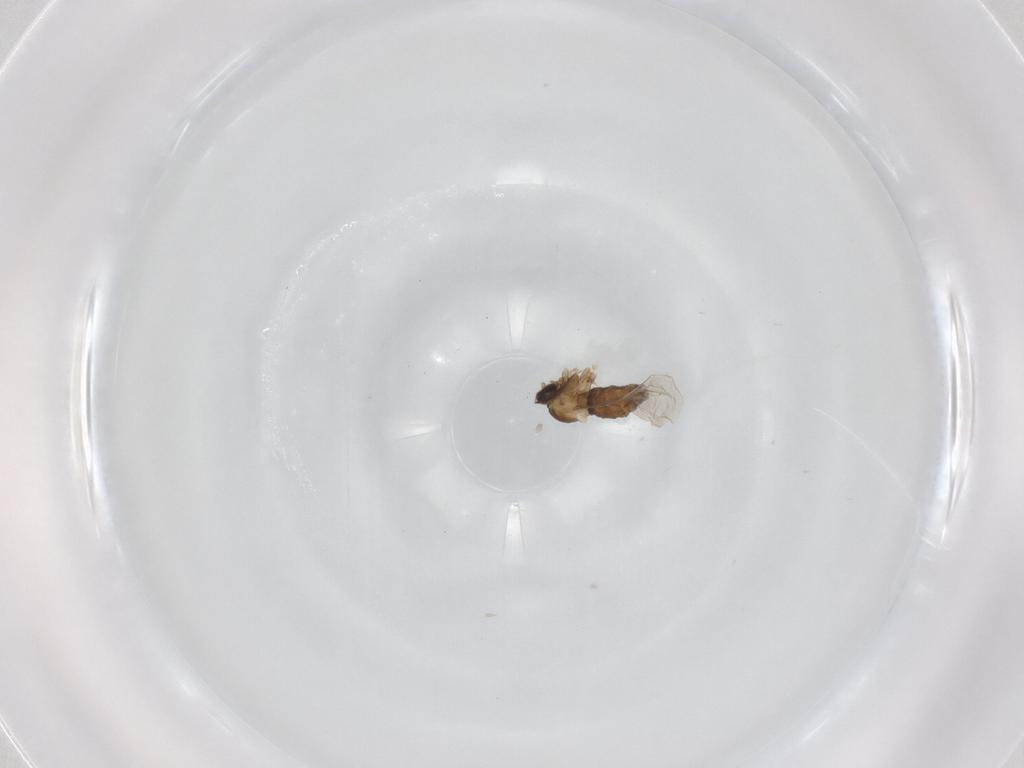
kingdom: Animalia
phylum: Arthropoda
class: Insecta
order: Diptera
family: Cecidomyiidae
